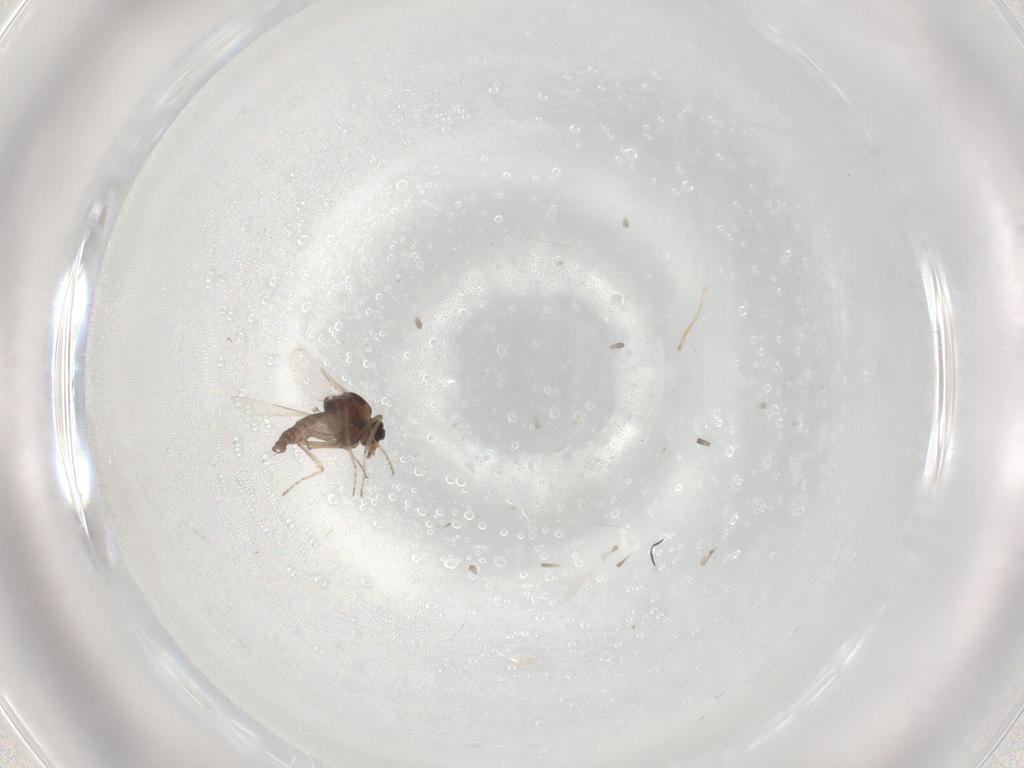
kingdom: Animalia
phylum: Arthropoda
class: Insecta
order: Diptera
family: Ceratopogonidae
